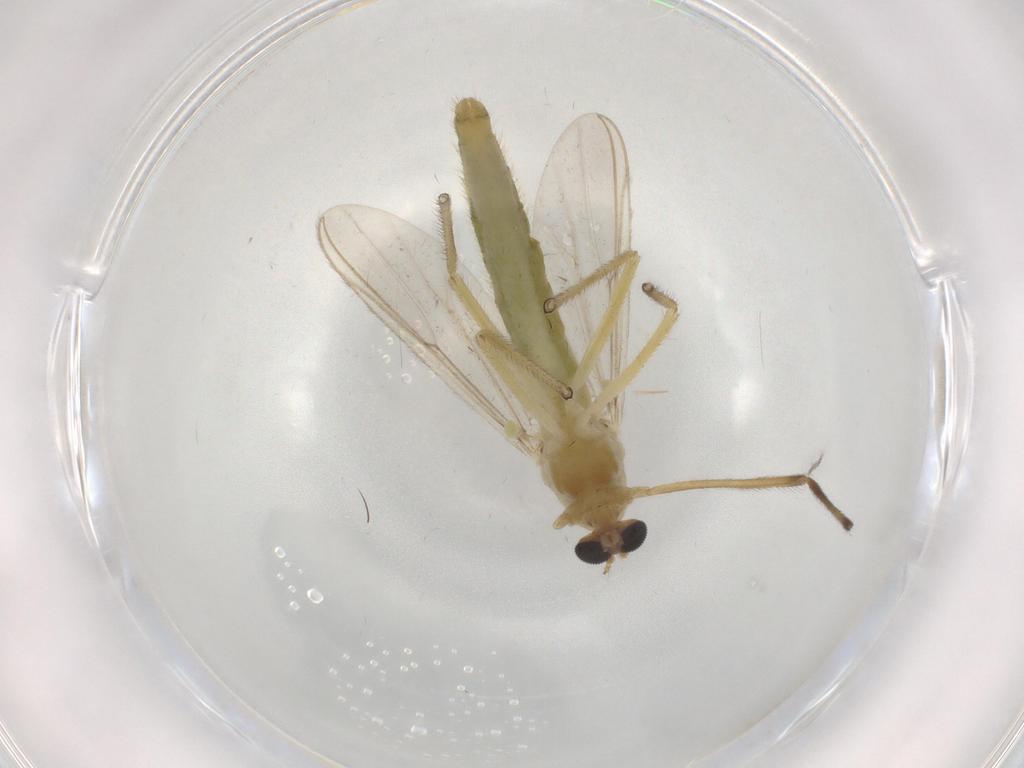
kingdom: Animalia
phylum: Arthropoda
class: Insecta
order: Diptera
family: Chironomidae
